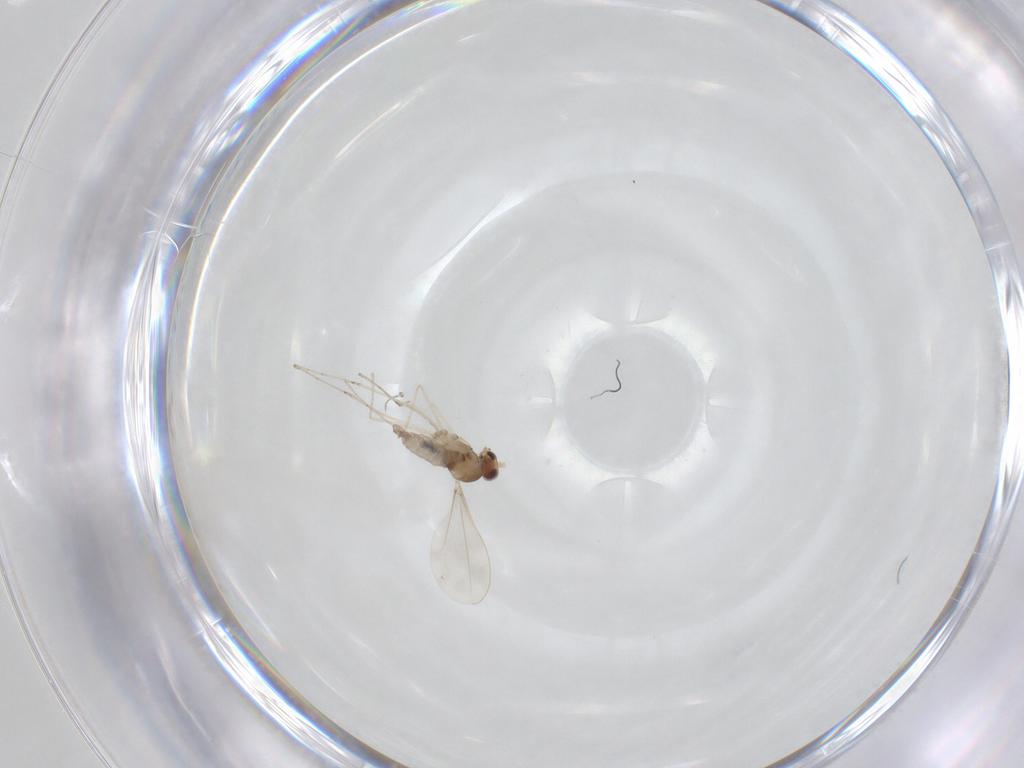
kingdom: Animalia
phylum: Arthropoda
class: Insecta
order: Diptera
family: Cecidomyiidae
